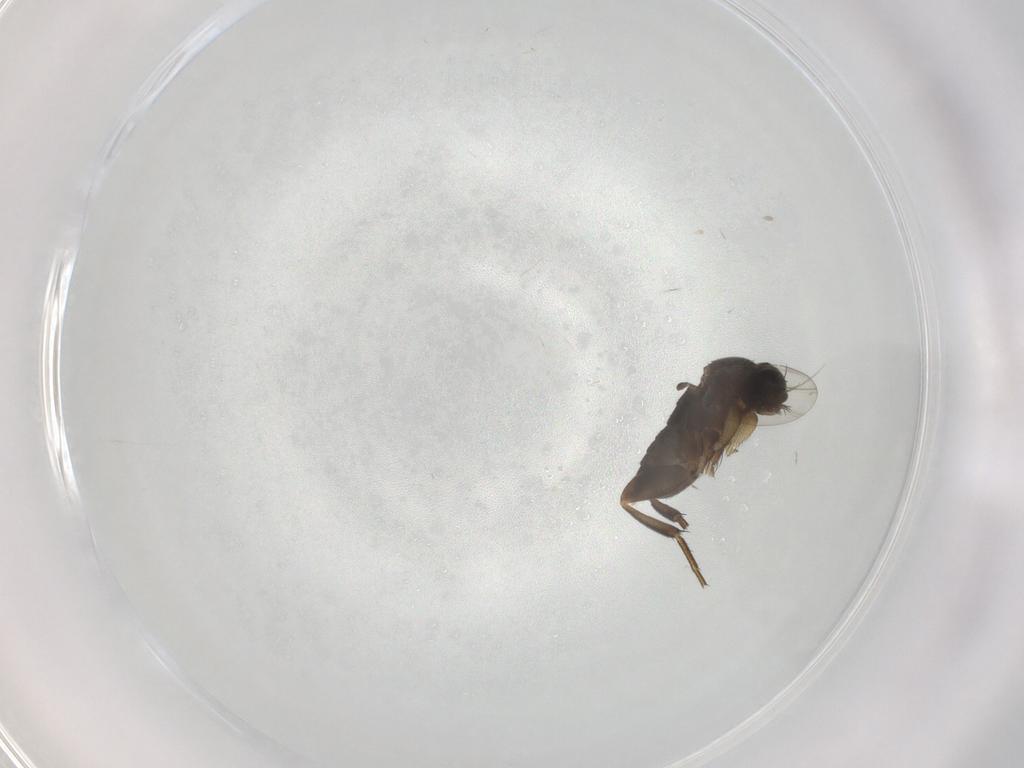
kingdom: Animalia
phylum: Arthropoda
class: Insecta
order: Diptera
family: Phoridae
